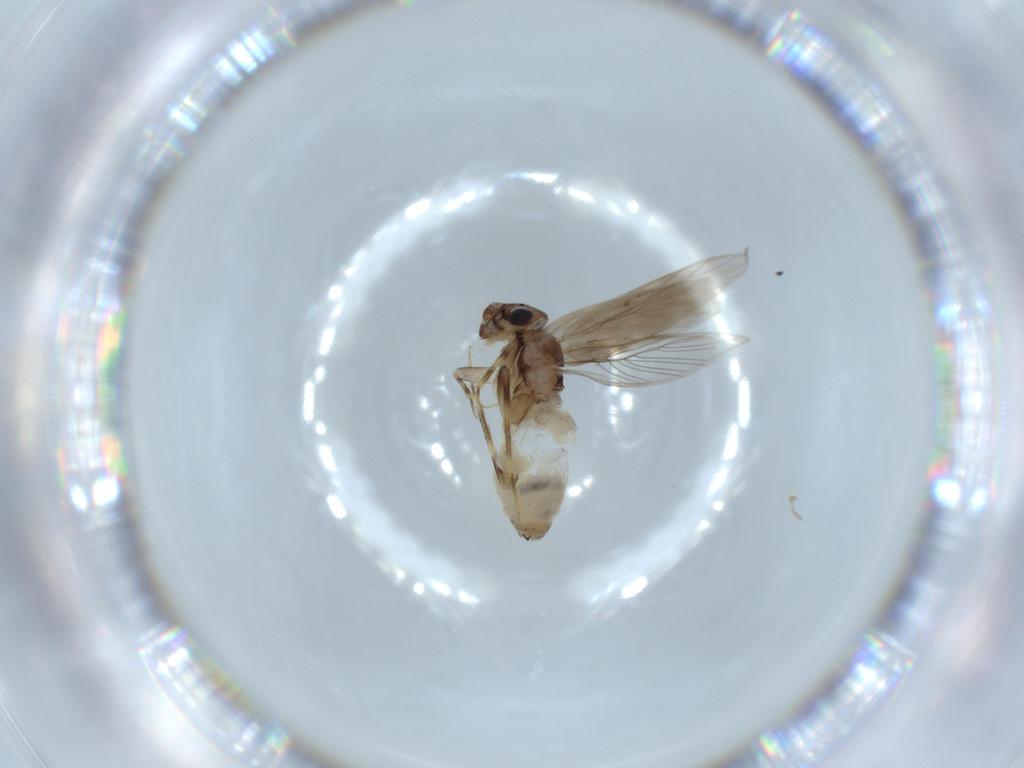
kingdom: Animalia
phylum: Arthropoda
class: Insecta
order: Psocodea
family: Lepidopsocidae
